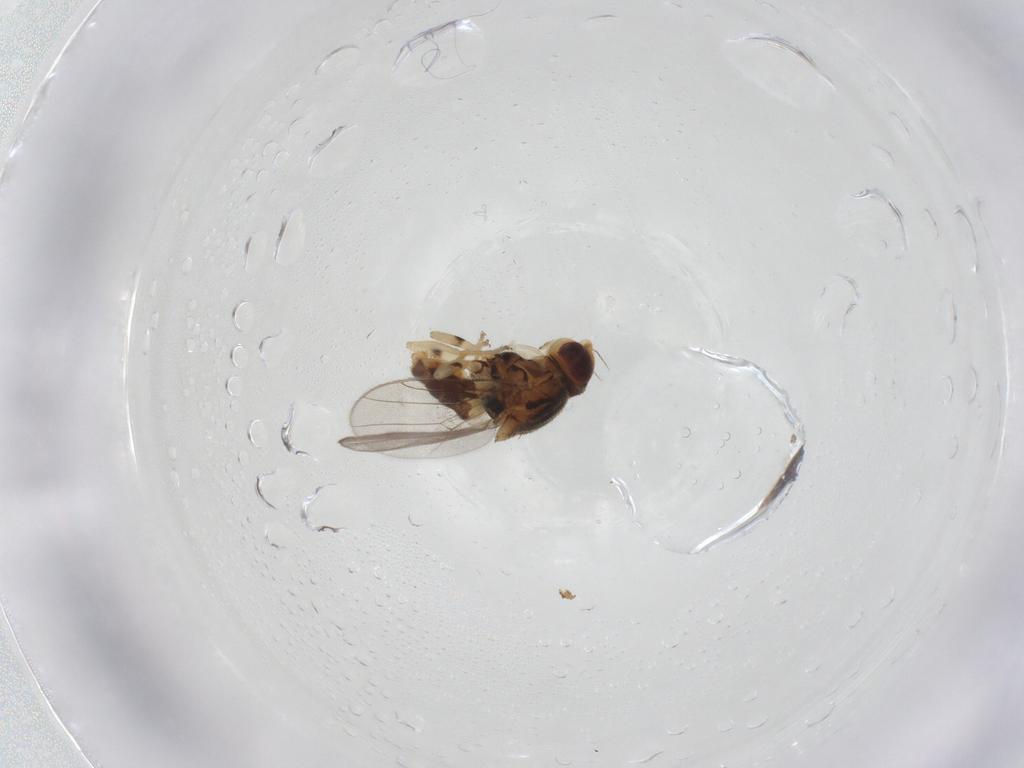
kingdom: Animalia
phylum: Arthropoda
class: Insecta
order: Diptera
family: Chloropidae
